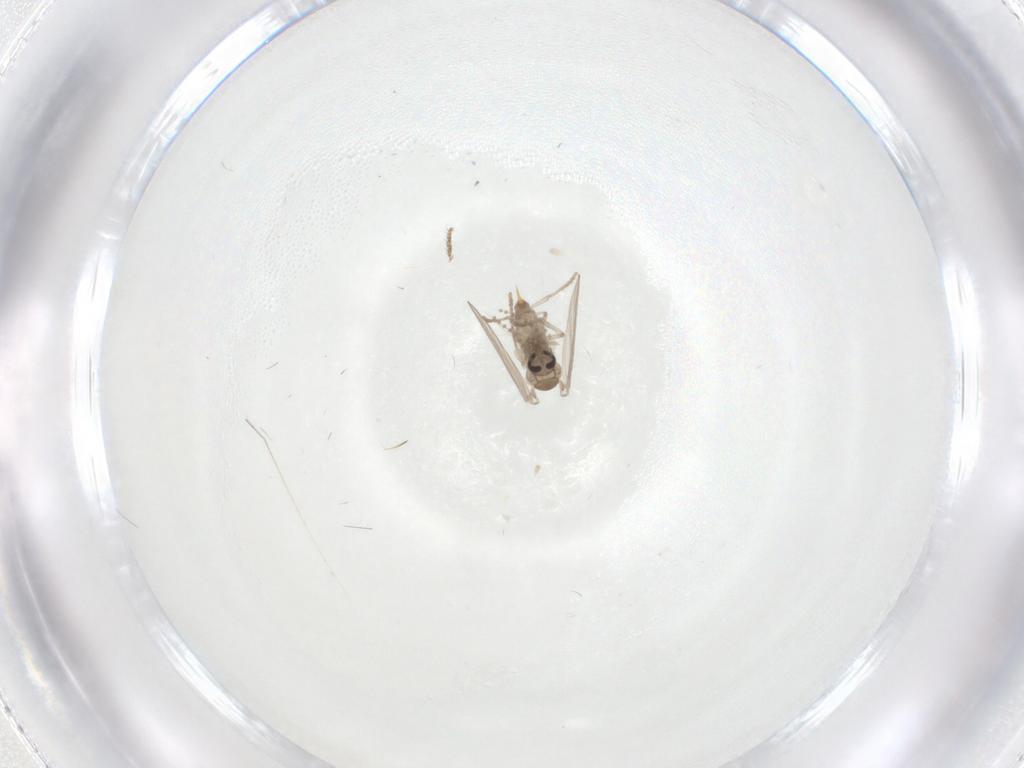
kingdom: Animalia
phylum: Arthropoda
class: Insecta
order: Diptera
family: Drosophilidae
